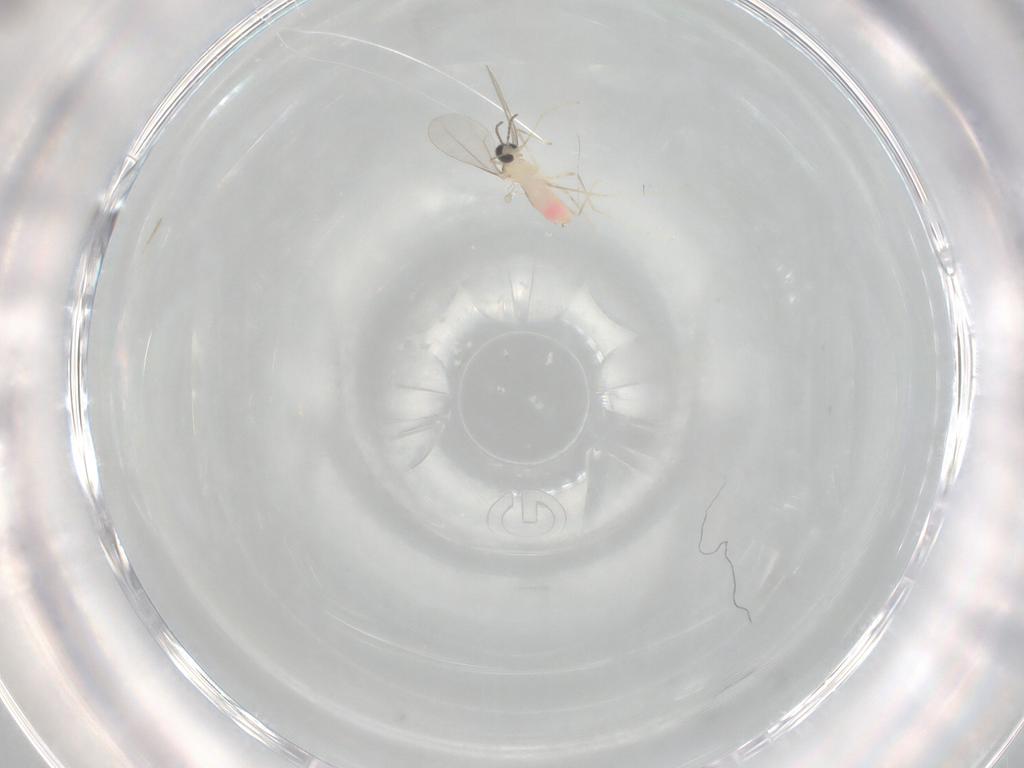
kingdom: Animalia
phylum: Arthropoda
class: Insecta
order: Diptera
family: Cecidomyiidae
